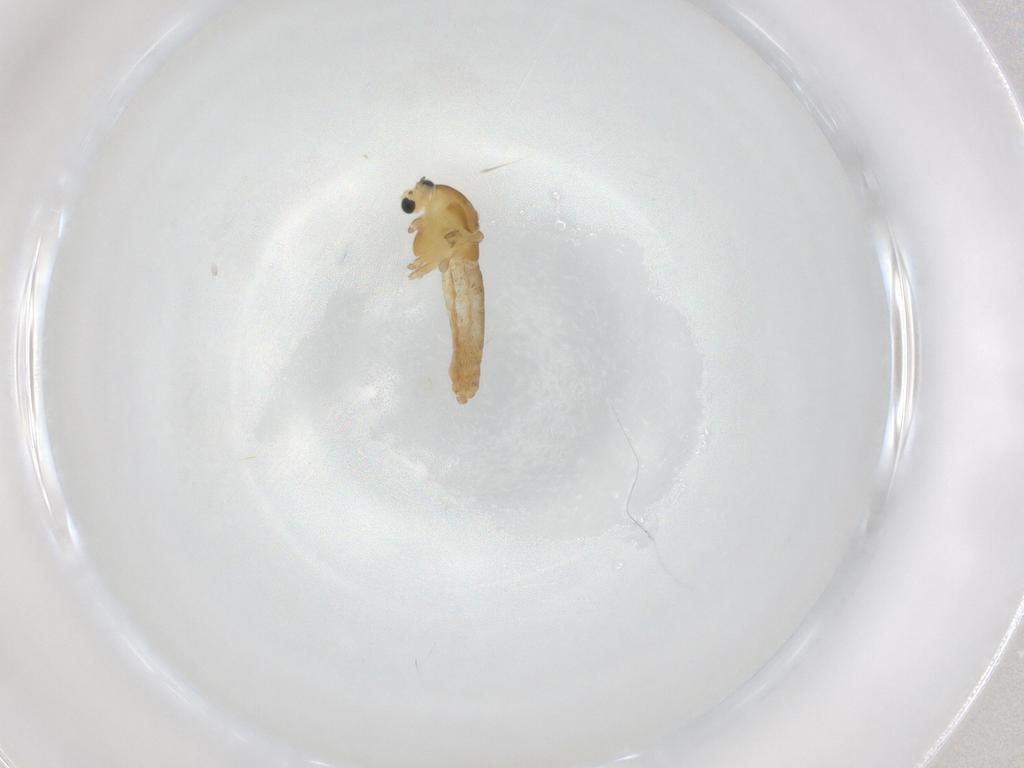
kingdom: Animalia
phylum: Arthropoda
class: Insecta
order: Diptera
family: Chironomidae
